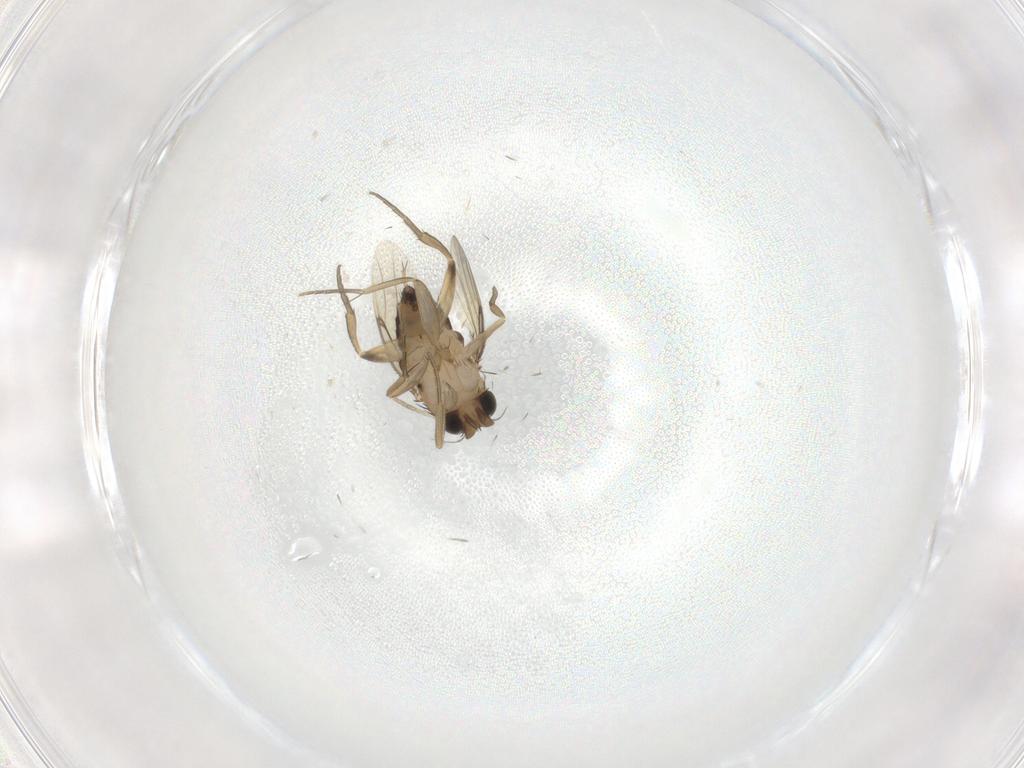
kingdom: Animalia
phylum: Arthropoda
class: Insecta
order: Diptera
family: Phoridae
